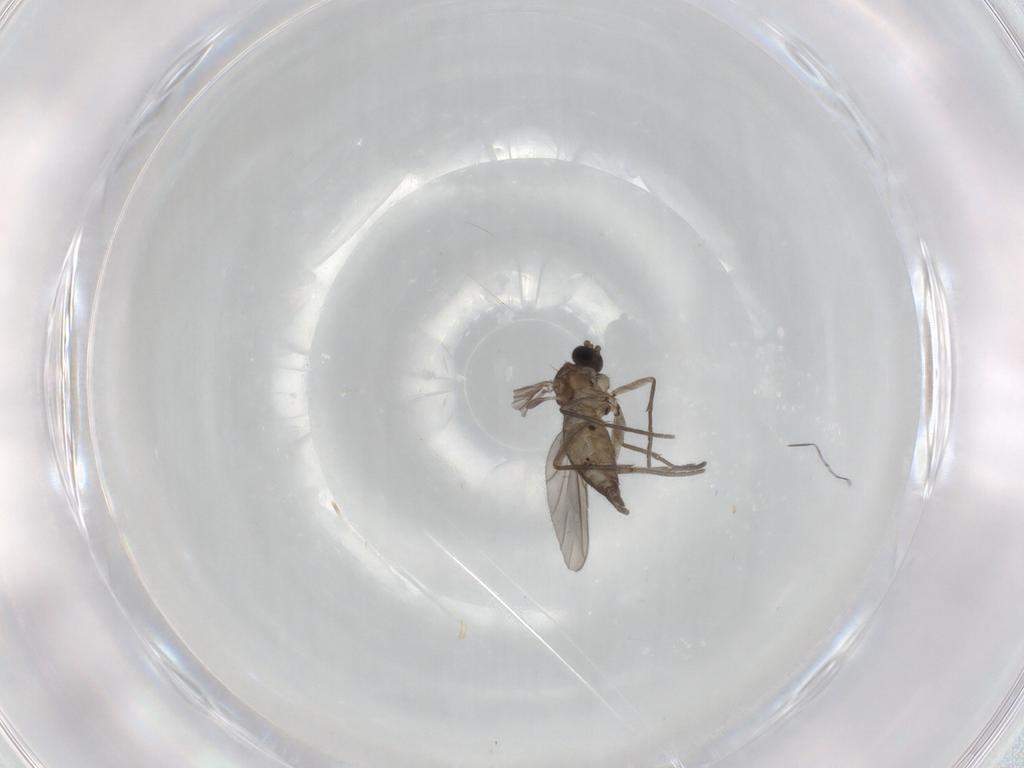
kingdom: Animalia
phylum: Arthropoda
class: Insecta
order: Diptera
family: Sciaridae
